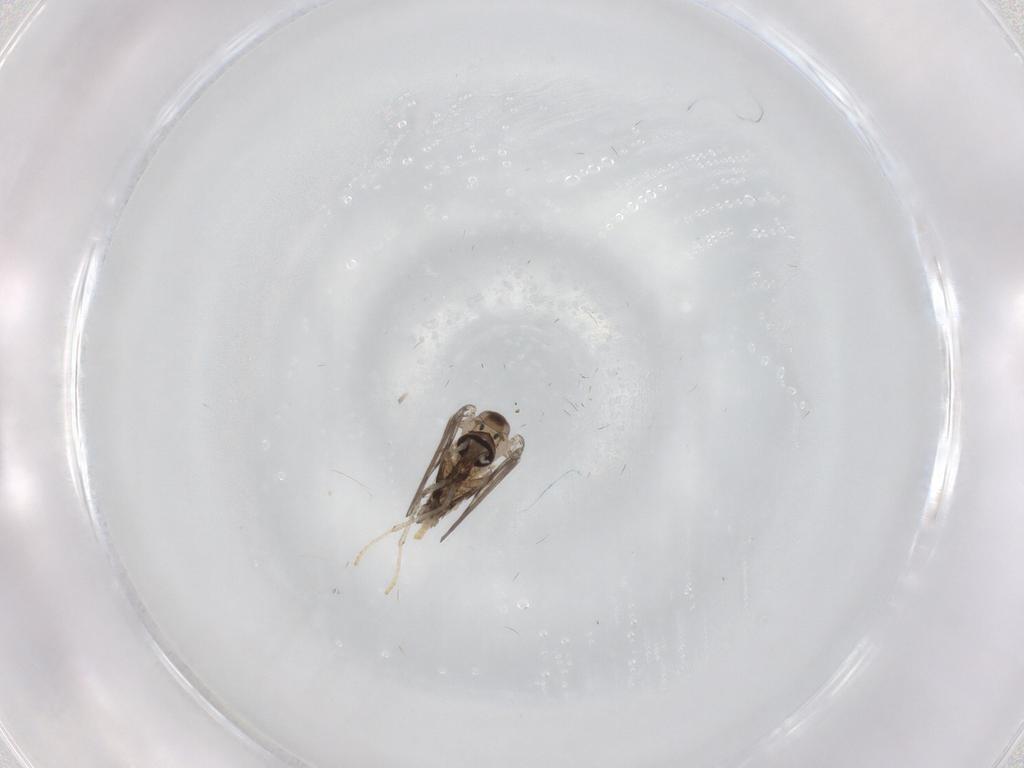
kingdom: Animalia
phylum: Arthropoda
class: Insecta
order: Diptera
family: Psychodidae
